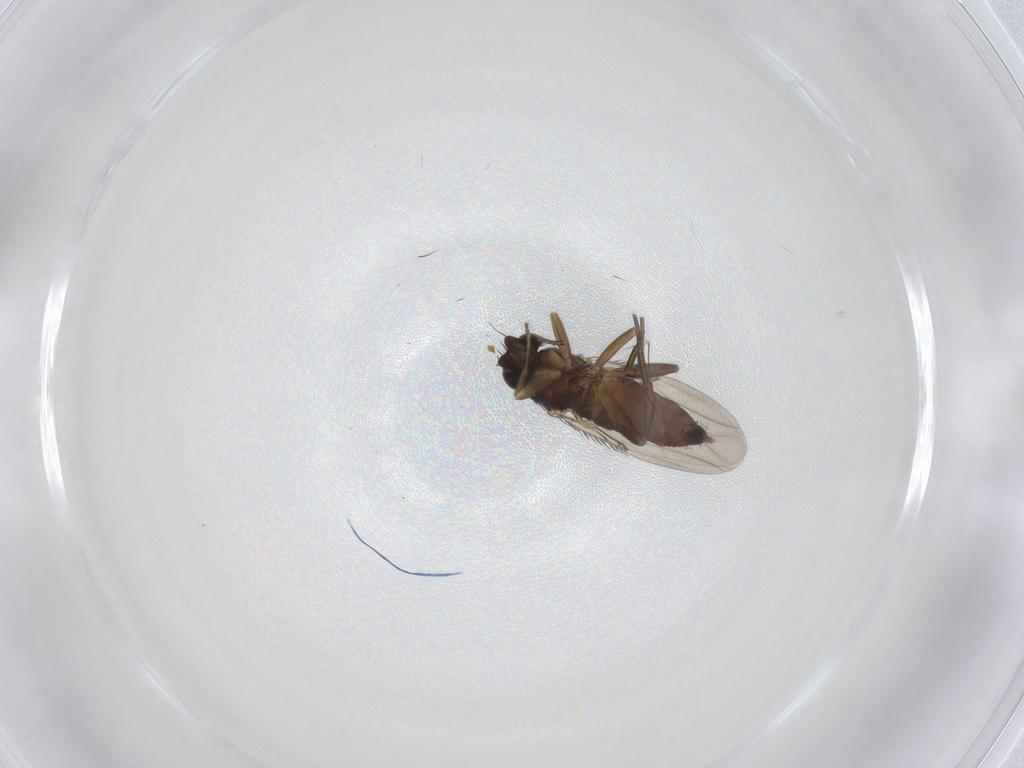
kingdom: Animalia
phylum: Arthropoda
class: Insecta
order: Diptera
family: Phoridae
